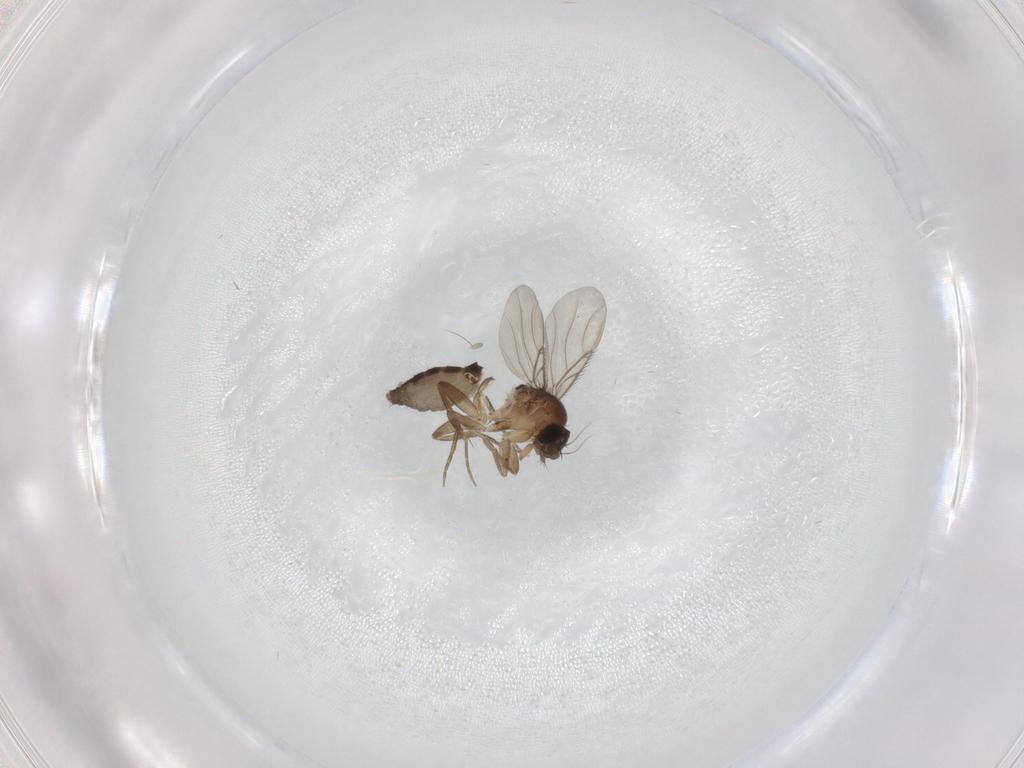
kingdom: Animalia
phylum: Arthropoda
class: Insecta
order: Diptera
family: Phoridae
